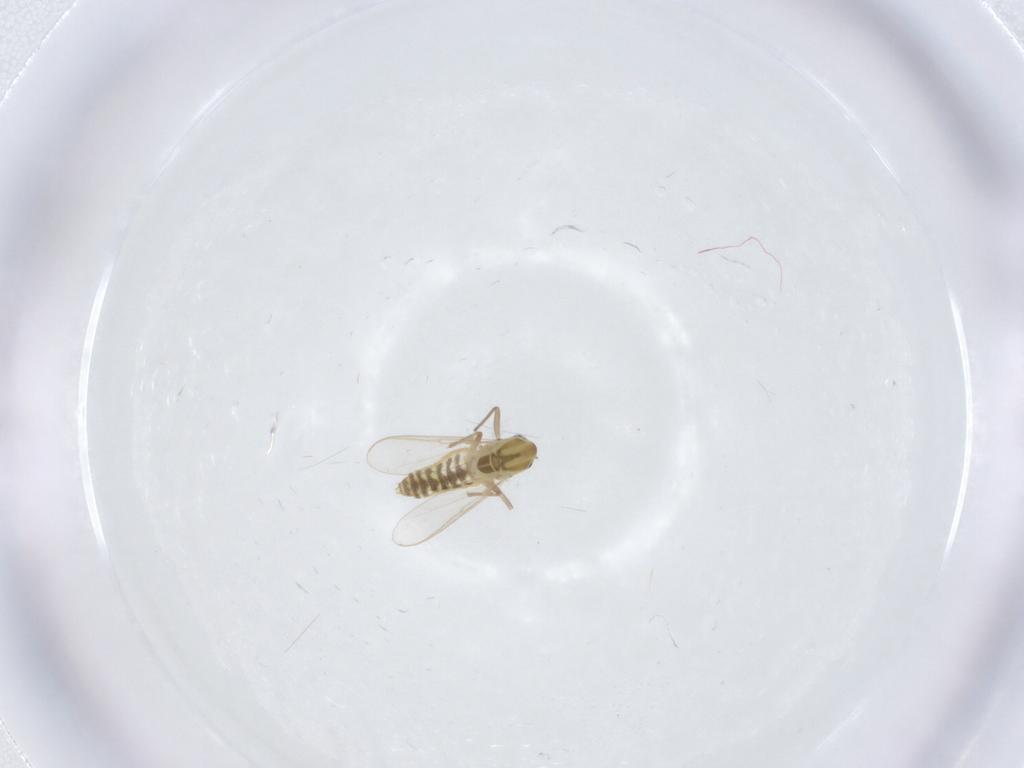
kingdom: Animalia
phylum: Arthropoda
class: Insecta
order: Diptera
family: Chironomidae
